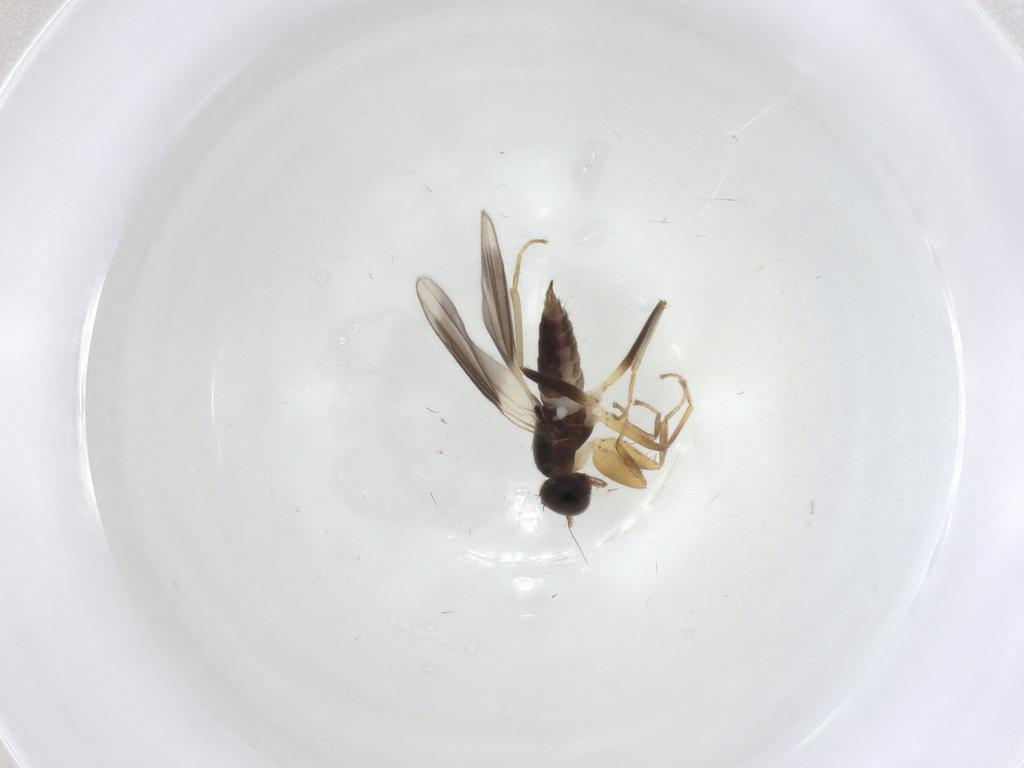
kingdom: Animalia
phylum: Arthropoda
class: Insecta
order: Diptera
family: Hybotidae
